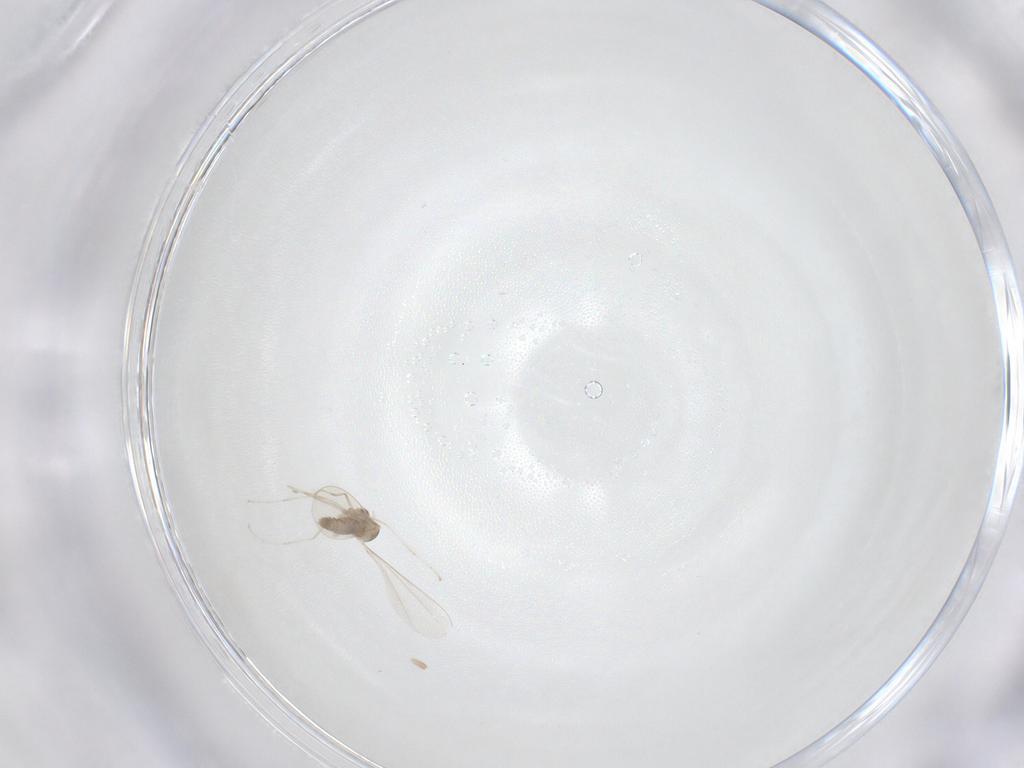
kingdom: Animalia
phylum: Arthropoda
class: Insecta
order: Diptera
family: Cecidomyiidae
